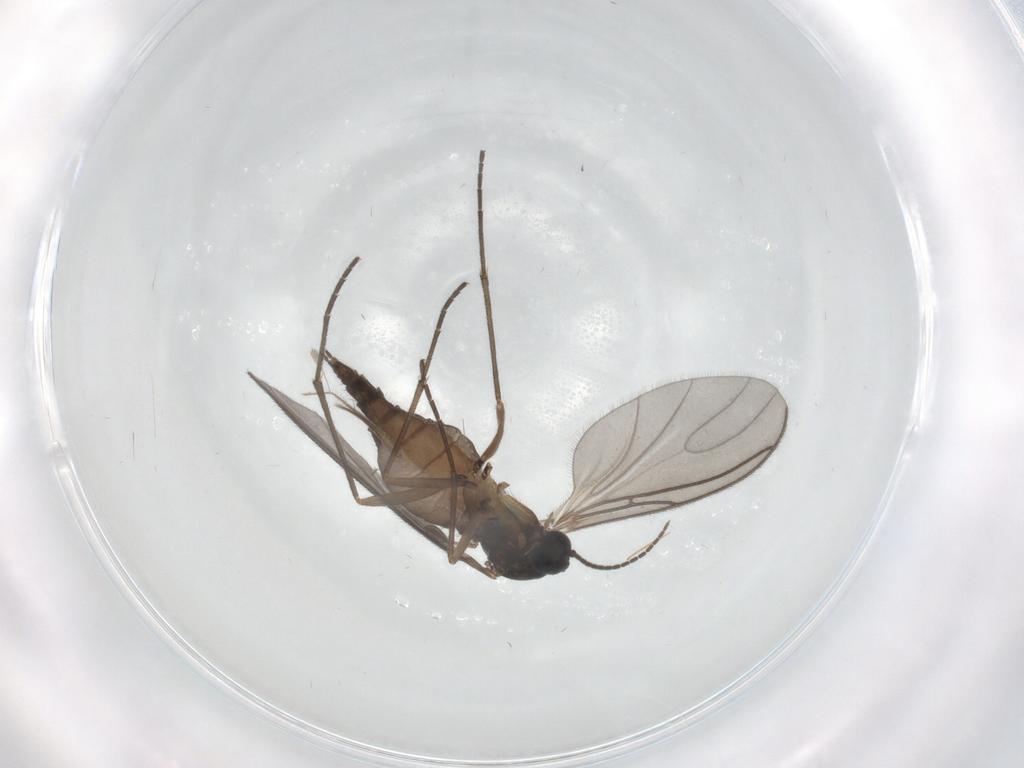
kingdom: Animalia
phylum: Arthropoda
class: Insecta
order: Diptera
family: Sciaridae
